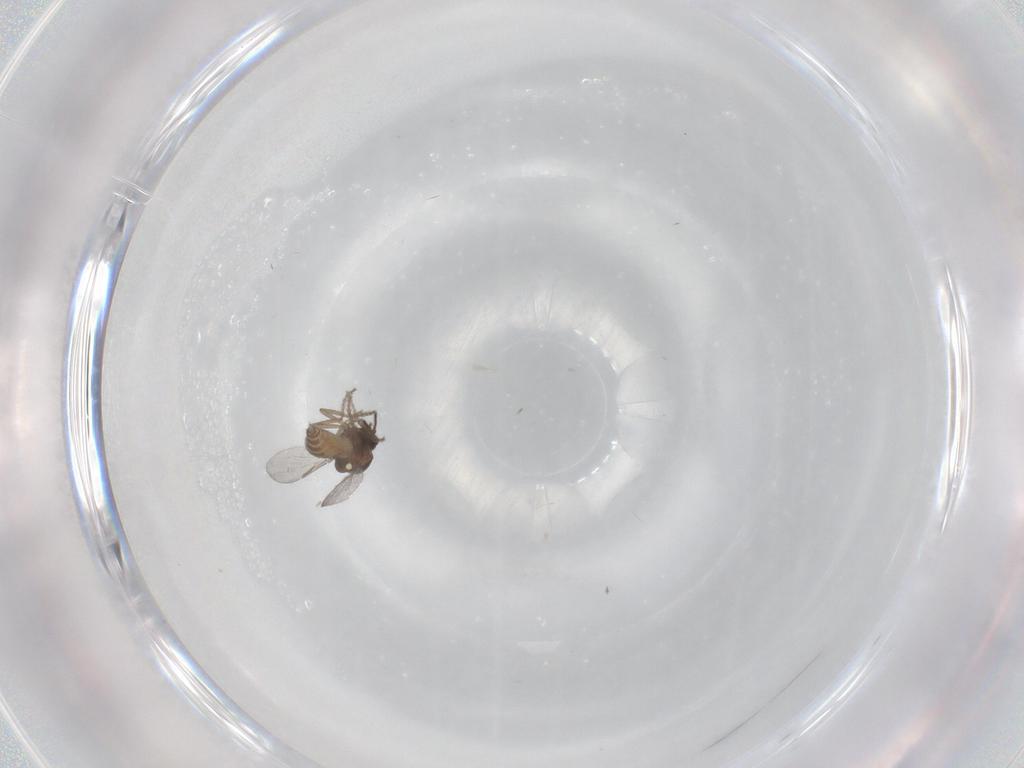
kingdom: Animalia
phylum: Arthropoda
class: Insecta
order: Diptera
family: Ceratopogonidae
